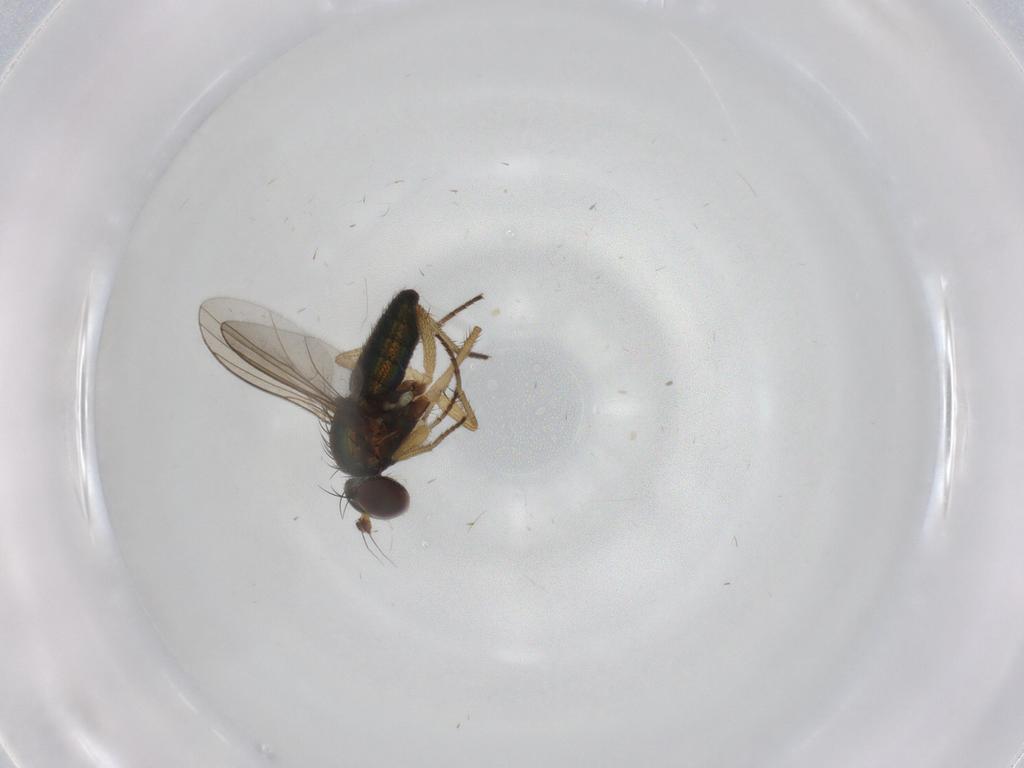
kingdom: Animalia
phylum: Arthropoda
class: Insecta
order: Diptera
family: Dolichopodidae
